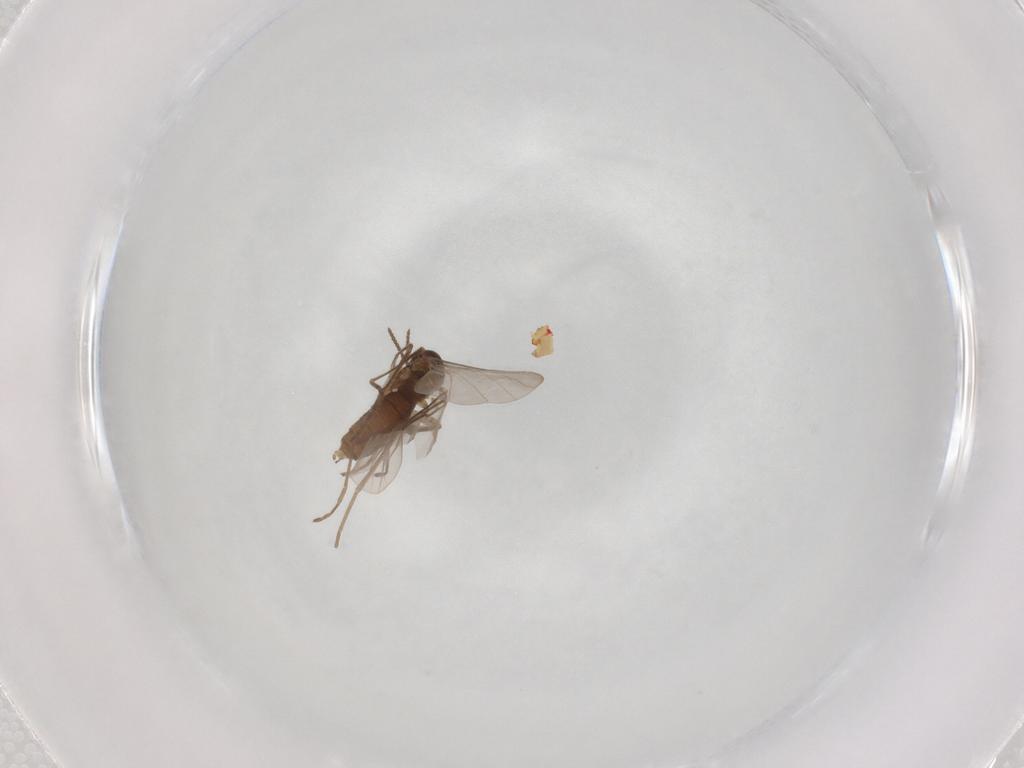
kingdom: Animalia
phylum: Arthropoda
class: Insecta
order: Diptera
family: Cecidomyiidae
